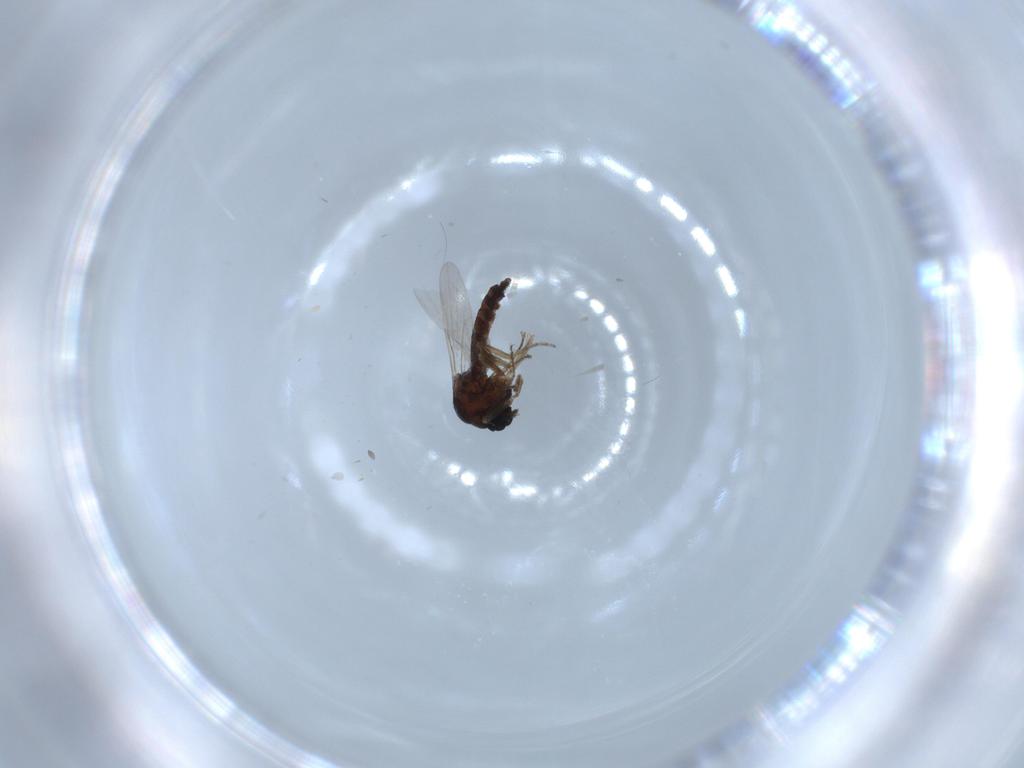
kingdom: Animalia
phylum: Arthropoda
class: Insecta
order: Diptera
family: Ceratopogonidae
